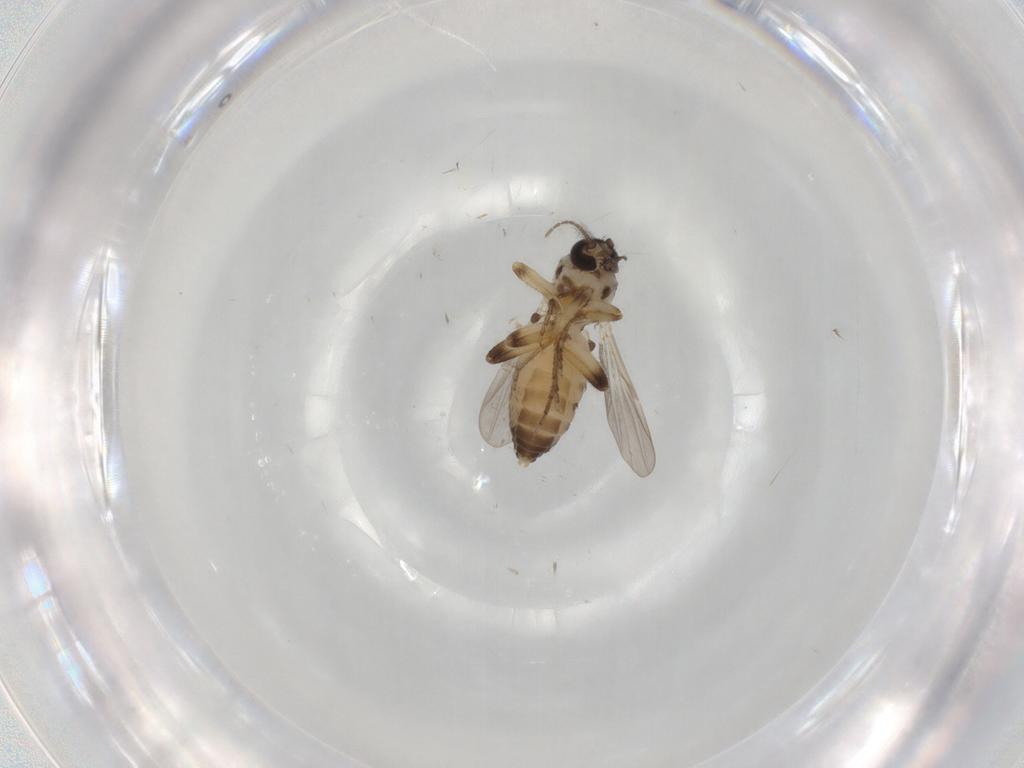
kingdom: Animalia
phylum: Arthropoda
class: Insecta
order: Diptera
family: Ceratopogonidae
